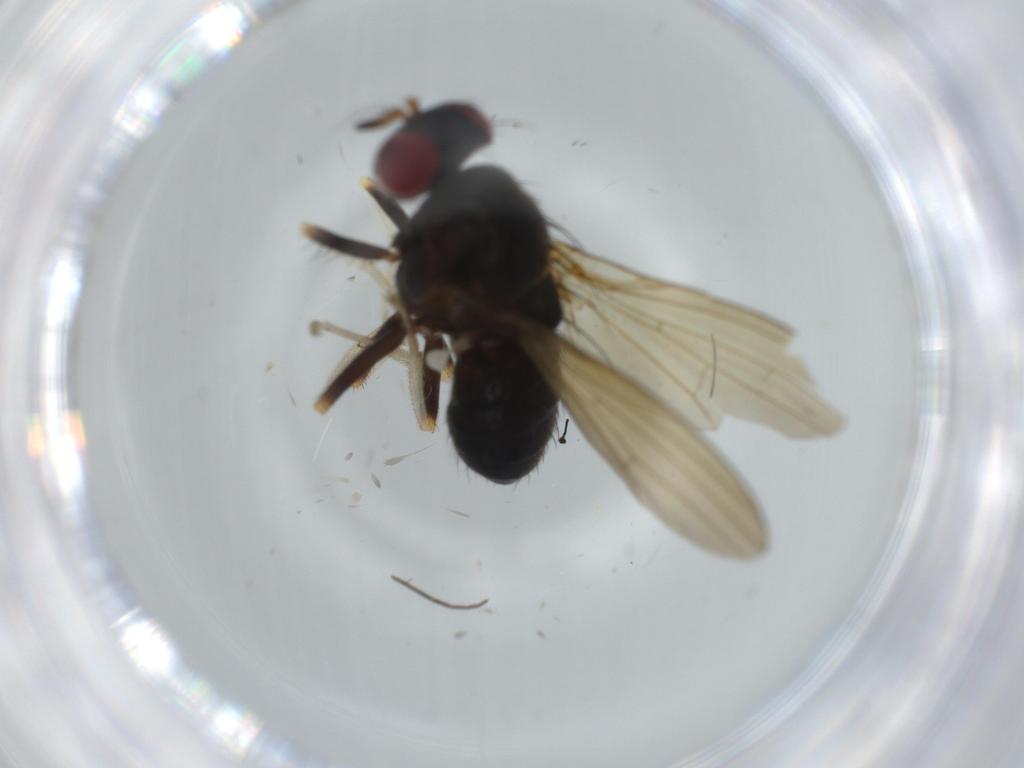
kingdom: Animalia
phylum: Arthropoda
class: Insecta
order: Diptera
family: Lauxaniidae
